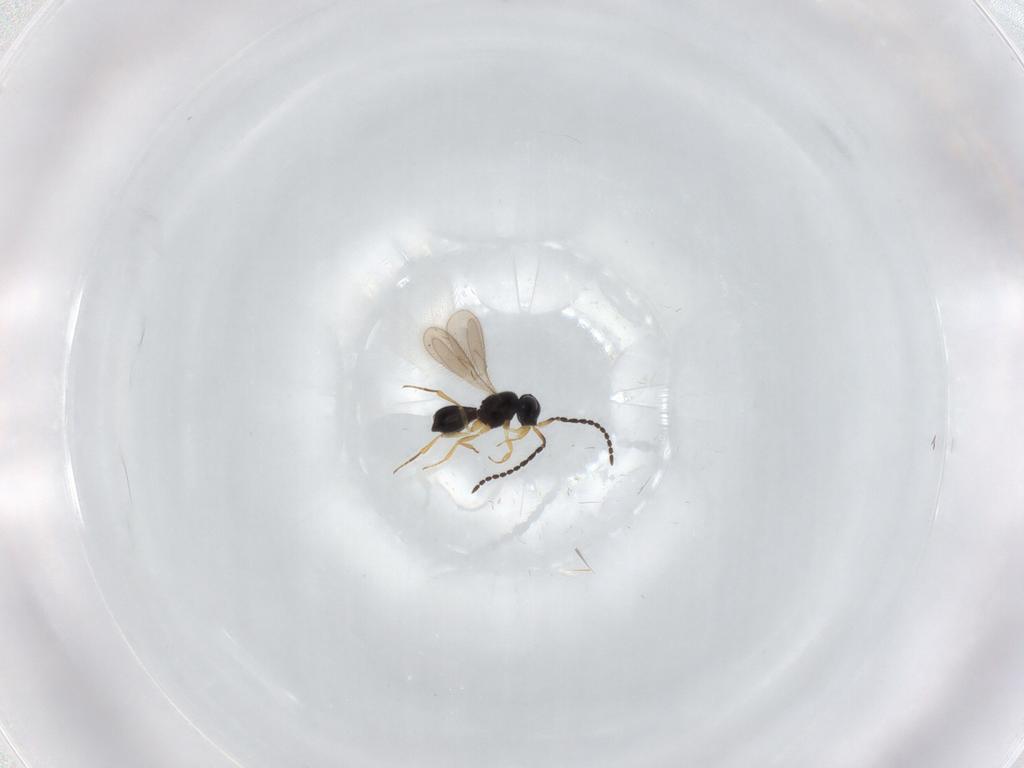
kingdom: Animalia
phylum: Arthropoda
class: Insecta
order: Hymenoptera
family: Scelionidae
